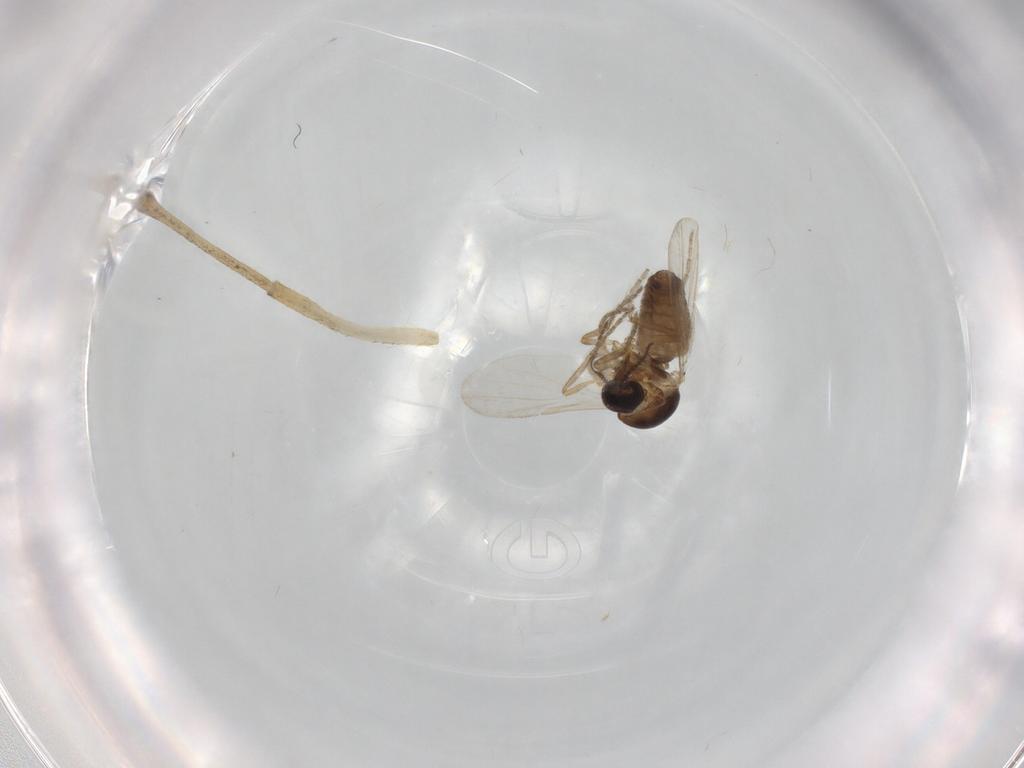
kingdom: Animalia
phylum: Arthropoda
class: Insecta
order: Diptera
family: Culicidae
